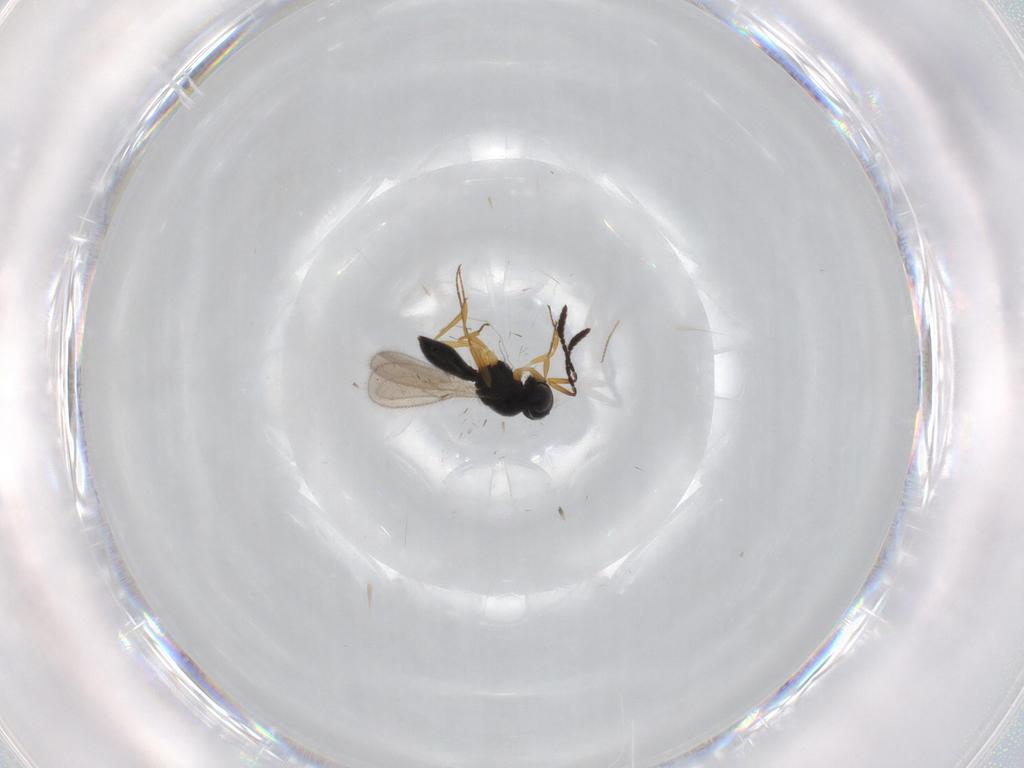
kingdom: Animalia
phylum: Arthropoda
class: Insecta
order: Hymenoptera
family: Scelionidae
